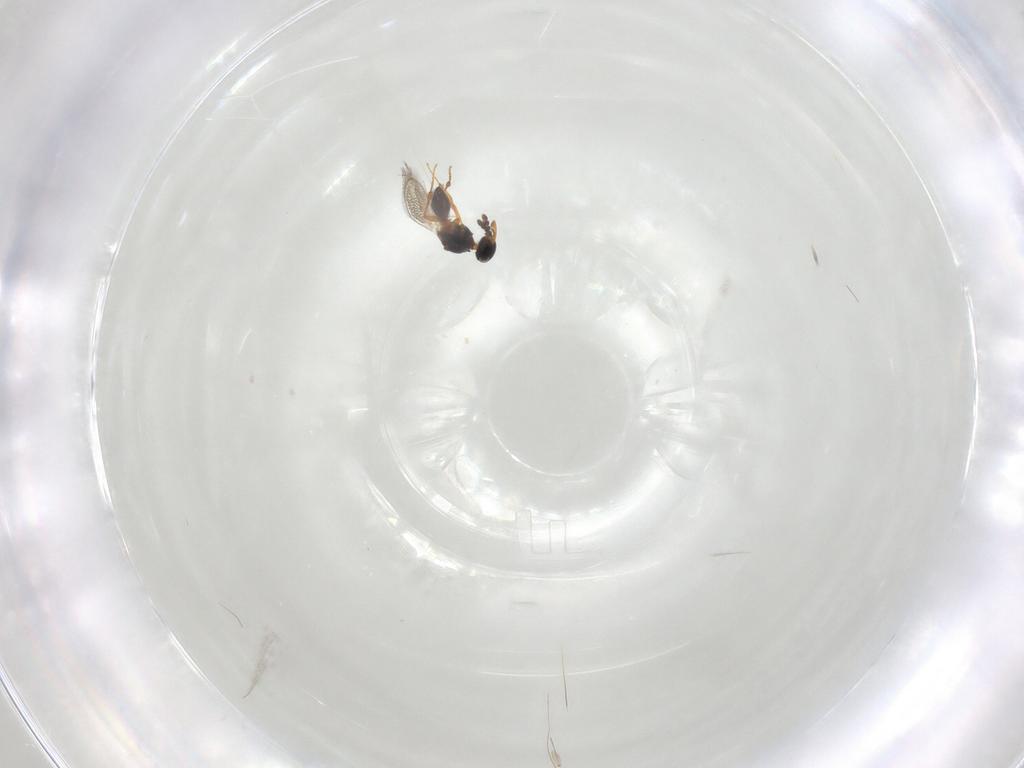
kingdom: Animalia
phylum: Arthropoda
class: Insecta
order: Hymenoptera
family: Platygastridae
